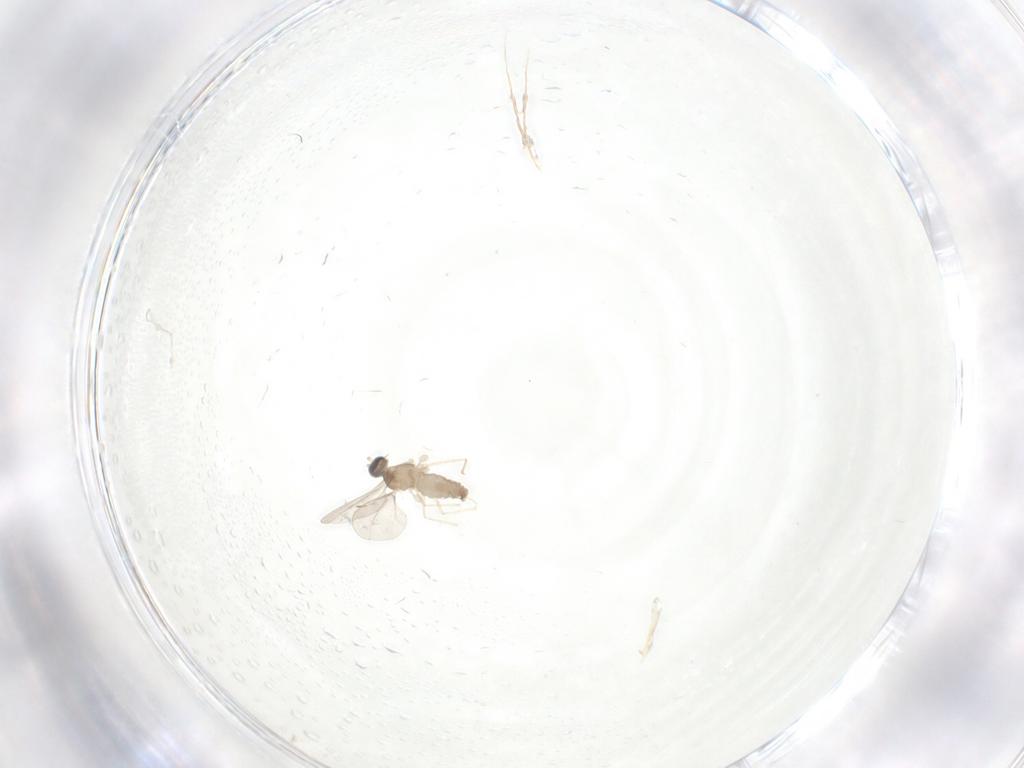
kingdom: Animalia
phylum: Arthropoda
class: Insecta
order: Diptera
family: Cecidomyiidae
